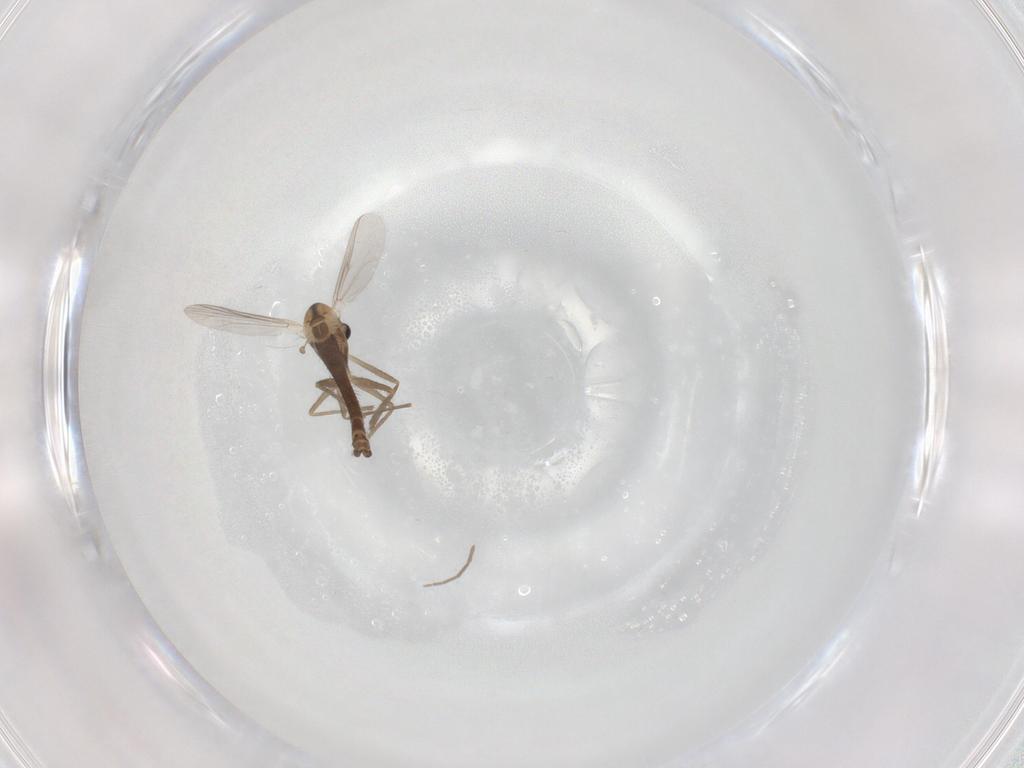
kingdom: Animalia
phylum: Arthropoda
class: Insecta
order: Diptera
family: Chironomidae
